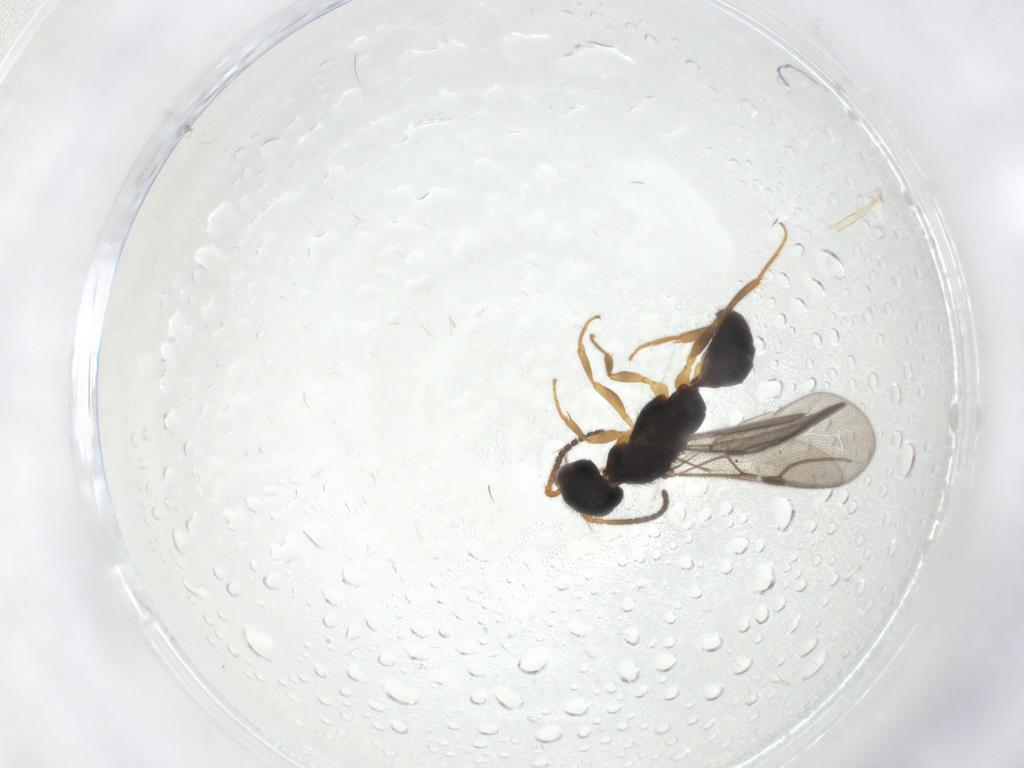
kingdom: Animalia
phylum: Arthropoda
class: Insecta
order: Hymenoptera
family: Bethylidae
